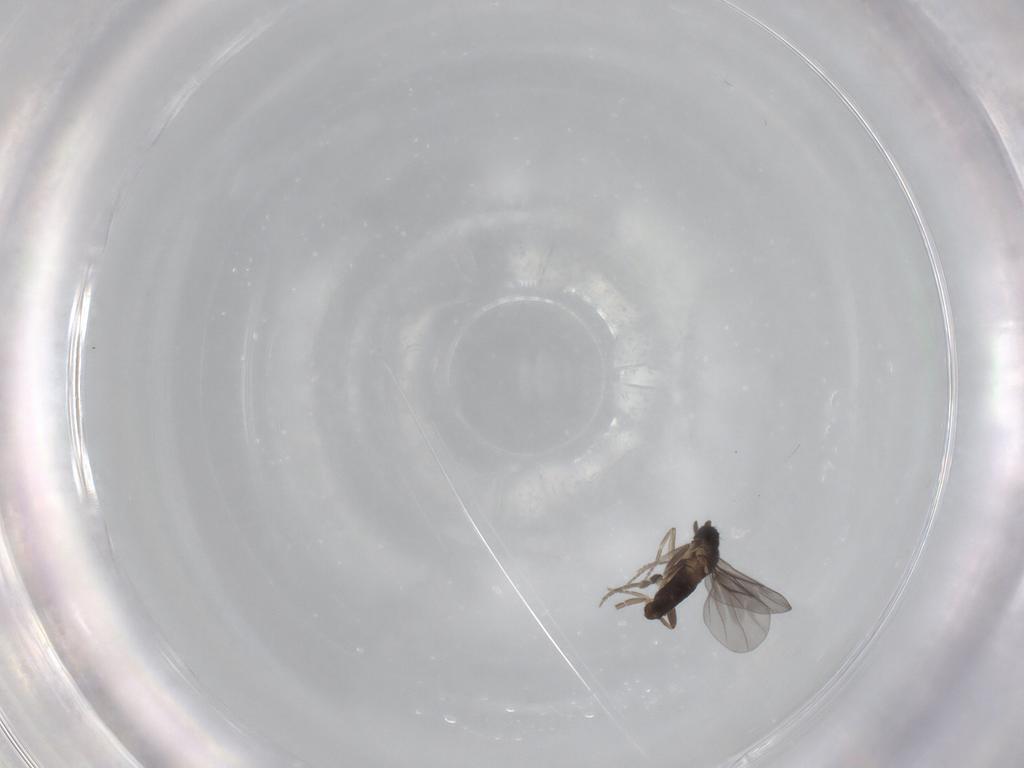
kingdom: Animalia
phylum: Arthropoda
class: Insecta
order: Diptera
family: Phoridae
